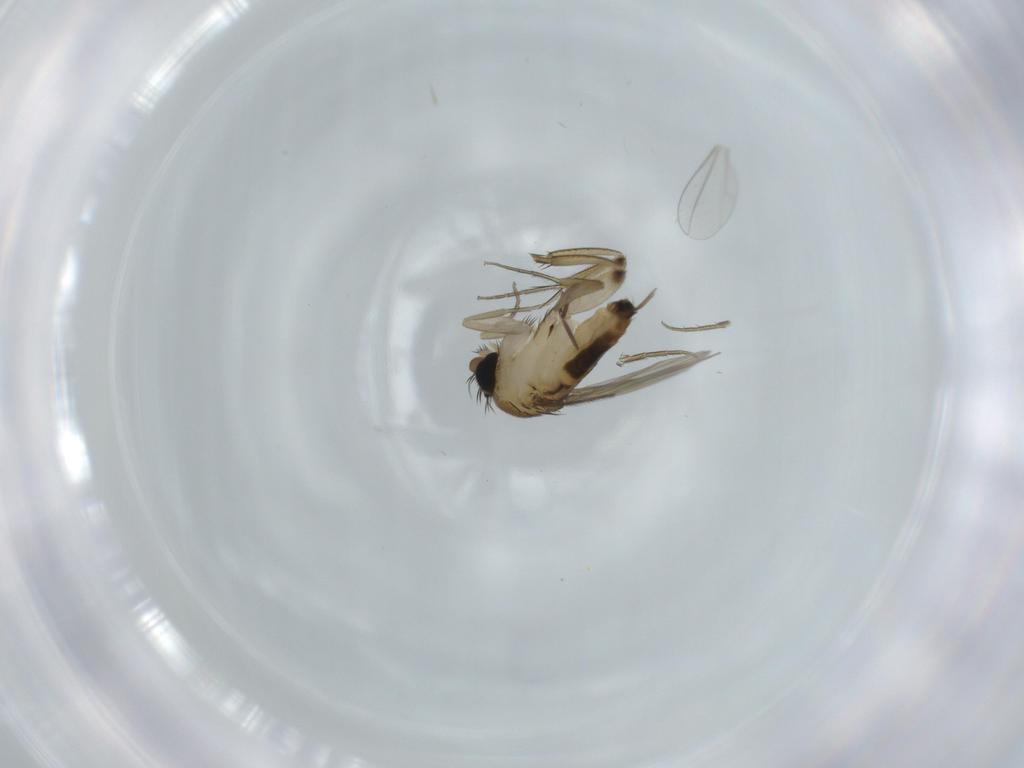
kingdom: Animalia
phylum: Arthropoda
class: Insecta
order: Diptera
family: Phoridae
